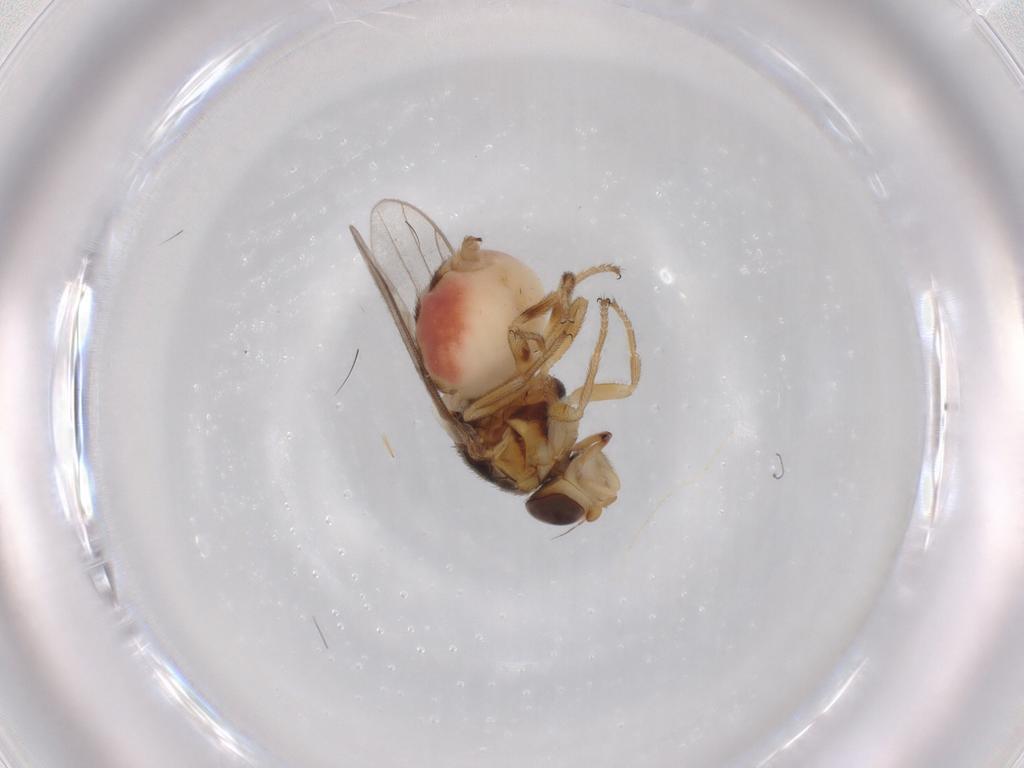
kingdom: Animalia
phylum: Arthropoda
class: Insecta
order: Diptera
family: Chloropidae
